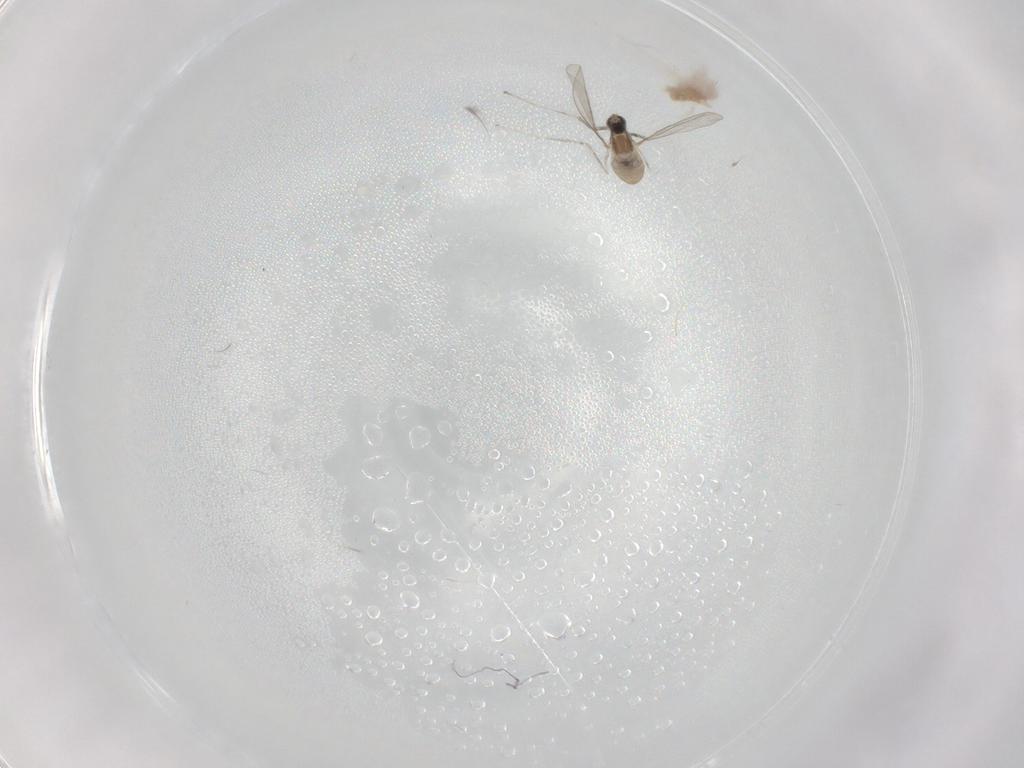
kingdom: Animalia
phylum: Arthropoda
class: Insecta
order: Diptera
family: Cecidomyiidae
